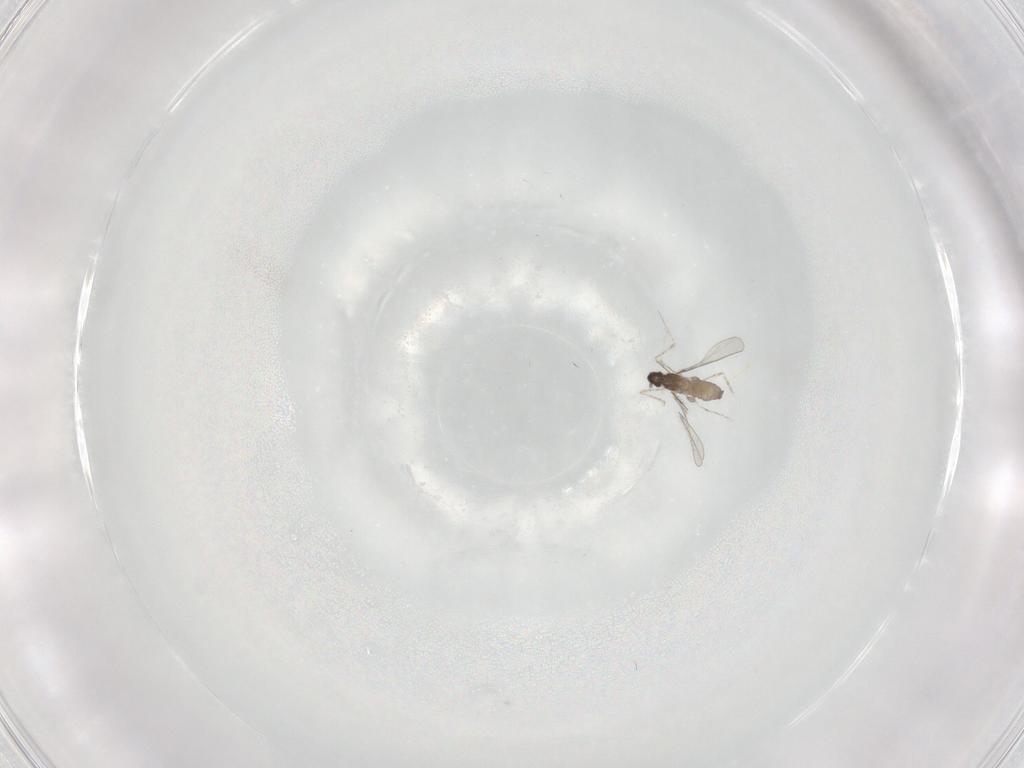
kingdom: Animalia
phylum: Arthropoda
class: Insecta
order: Diptera
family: Cecidomyiidae
